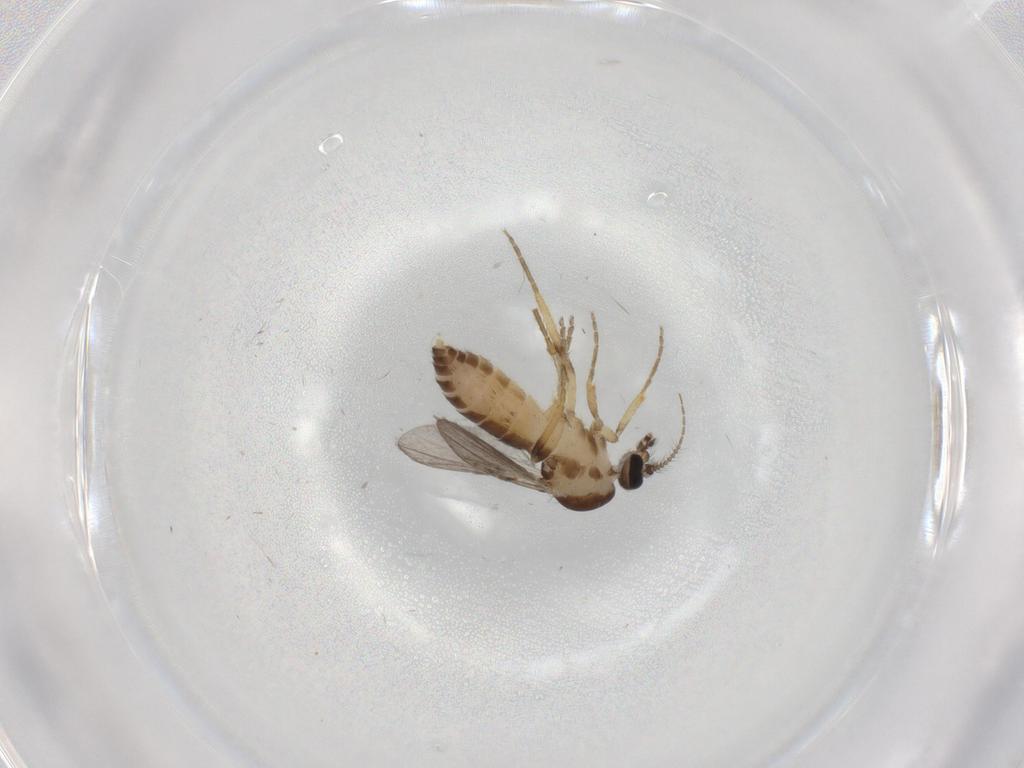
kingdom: Animalia
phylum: Arthropoda
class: Insecta
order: Diptera
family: Ceratopogonidae
